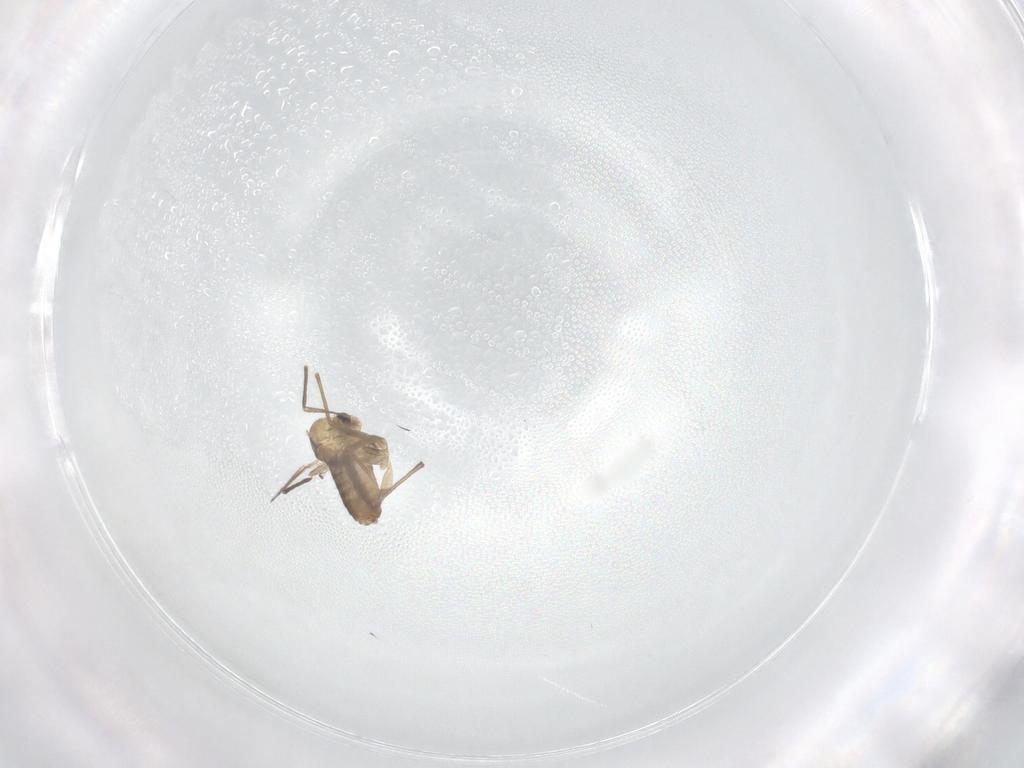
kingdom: Animalia
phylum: Arthropoda
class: Insecta
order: Diptera
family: Chironomidae
